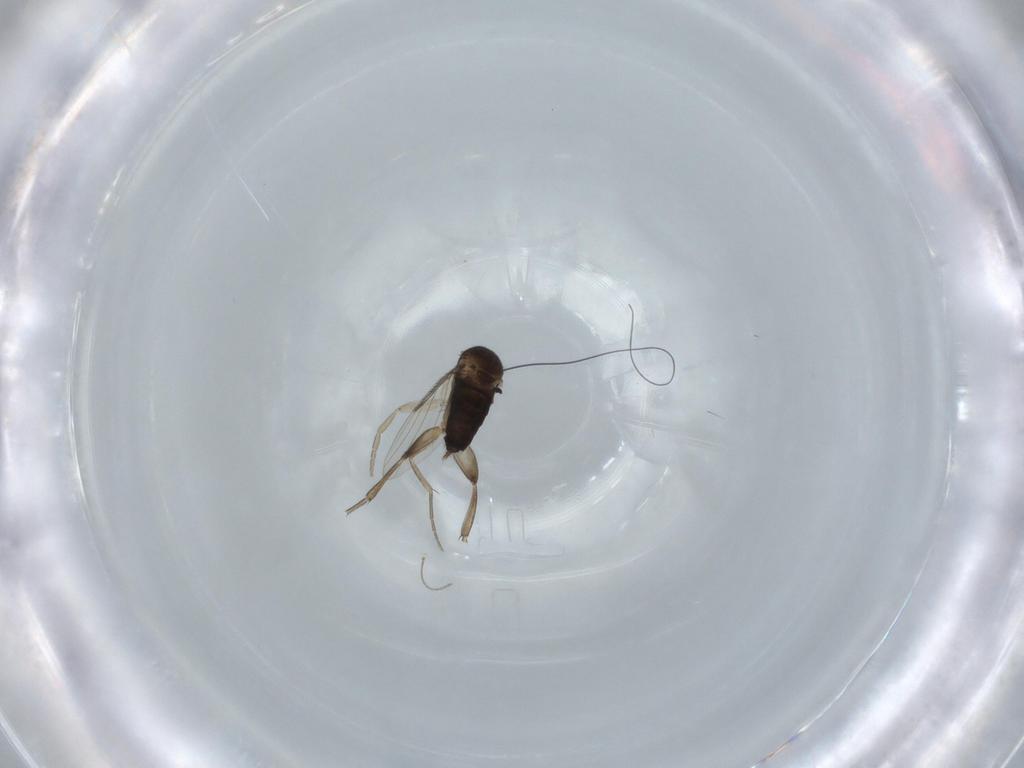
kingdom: Animalia
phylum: Arthropoda
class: Insecta
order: Diptera
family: Phoridae
